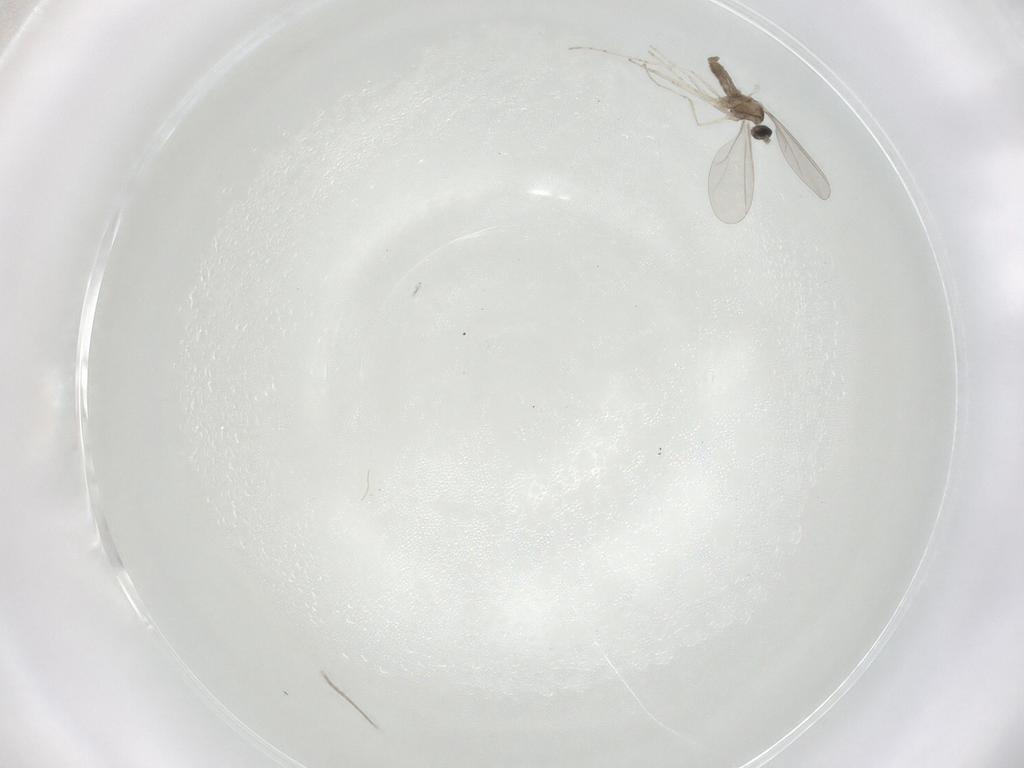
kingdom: Animalia
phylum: Arthropoda
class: Insecta
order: Diptera
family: Cecidomyiidae
